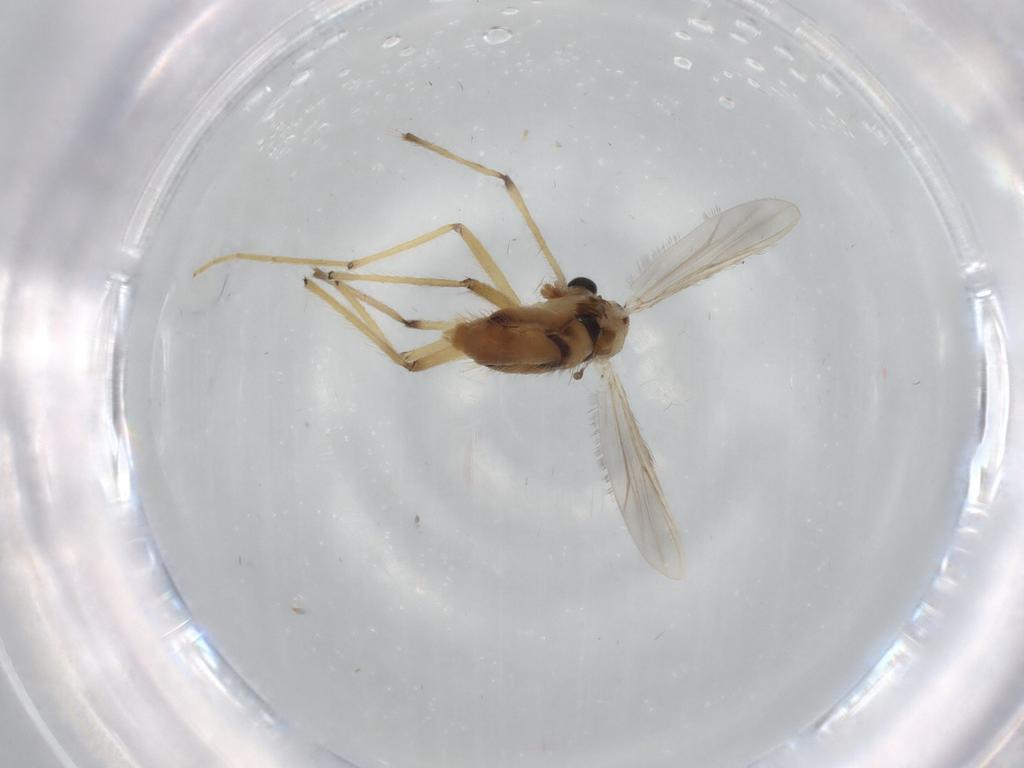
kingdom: Animalia
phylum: Arthropoda
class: Insecta
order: Diptera
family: Chironomidae
